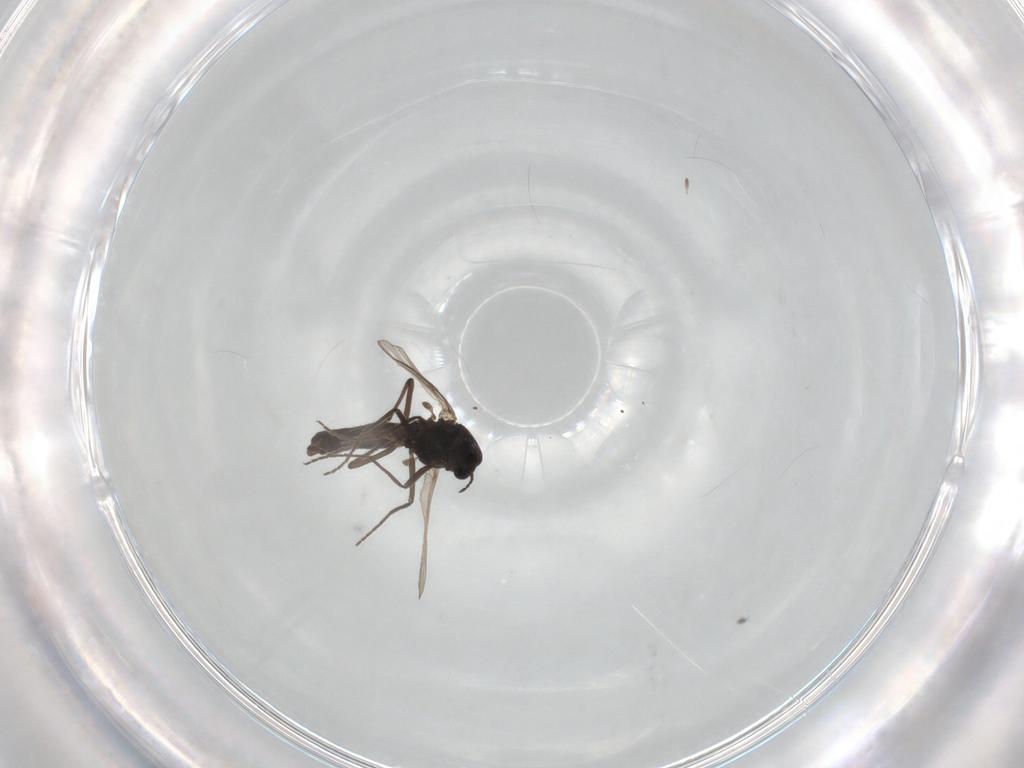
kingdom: Animalia
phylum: Arthropoda
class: Insecta
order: Diptera
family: Chironomidae
